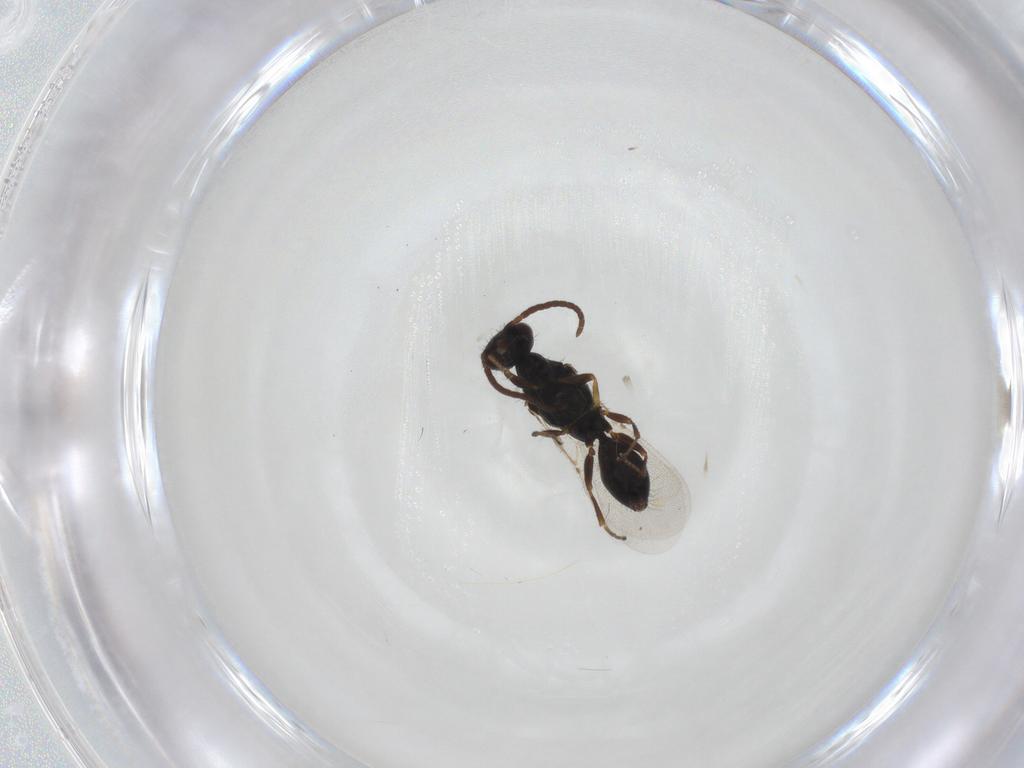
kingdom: Animalia
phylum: Arthropoda
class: Insecta
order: Hymenoptera
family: Bethylidae
